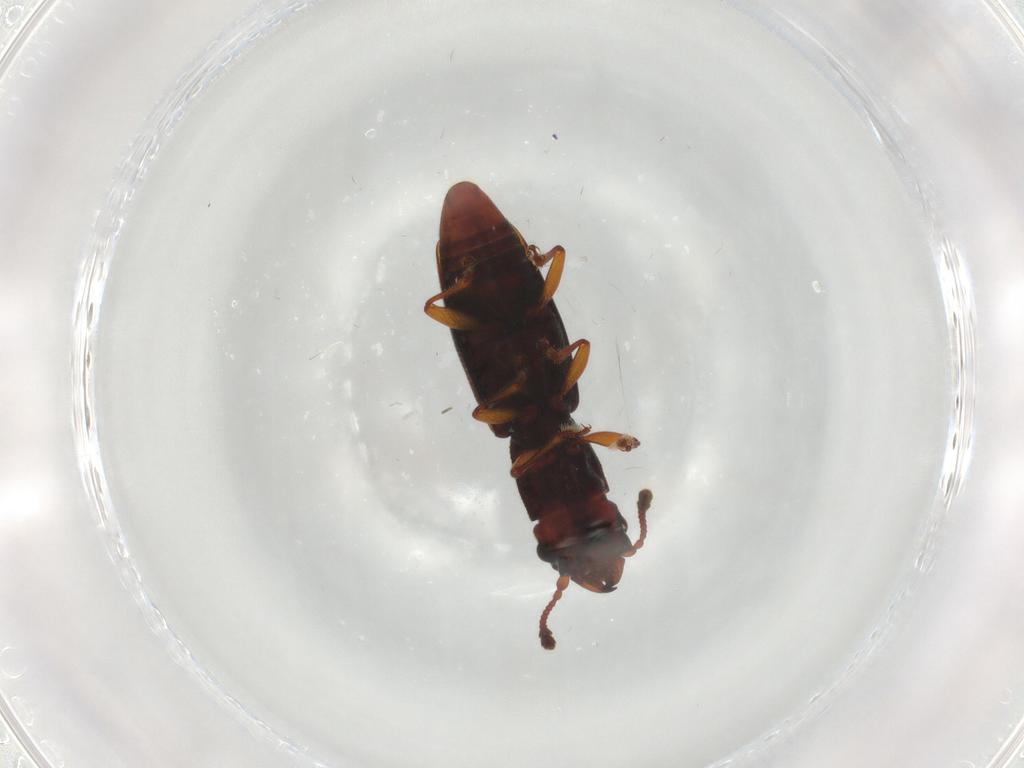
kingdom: Animalia
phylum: Arthropoda
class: Insecta
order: Coleoptera
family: Monotomidae
